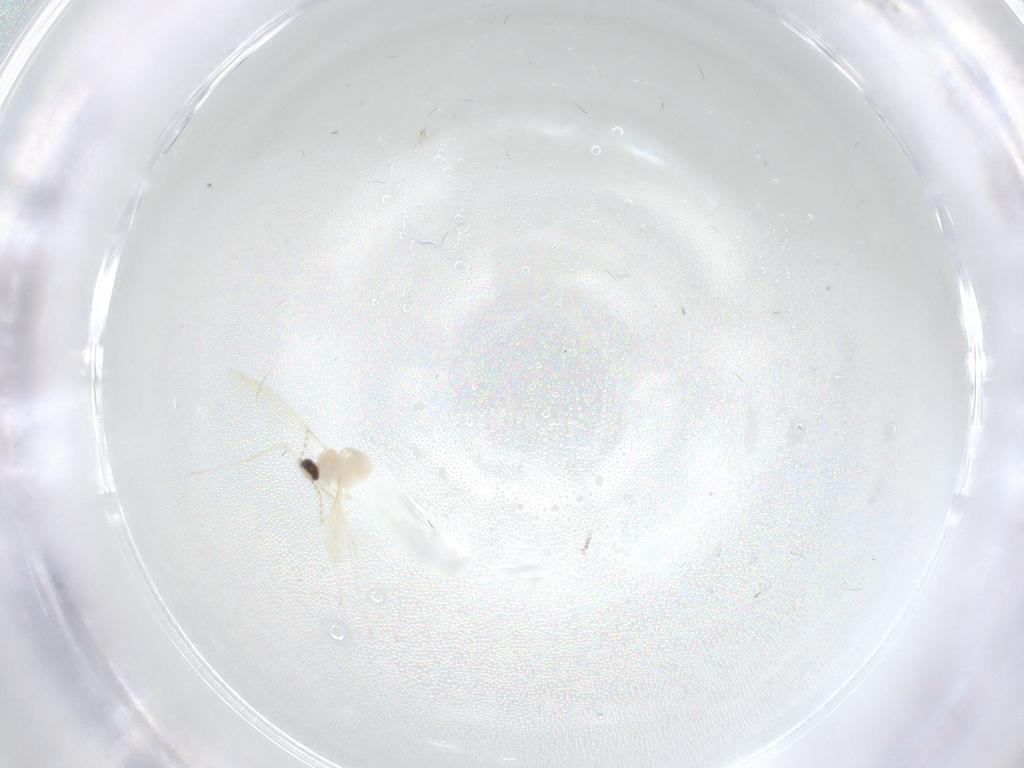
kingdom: Animalia
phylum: Arthropoda
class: Insecta
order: Diptera
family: Cecidomyiidae
